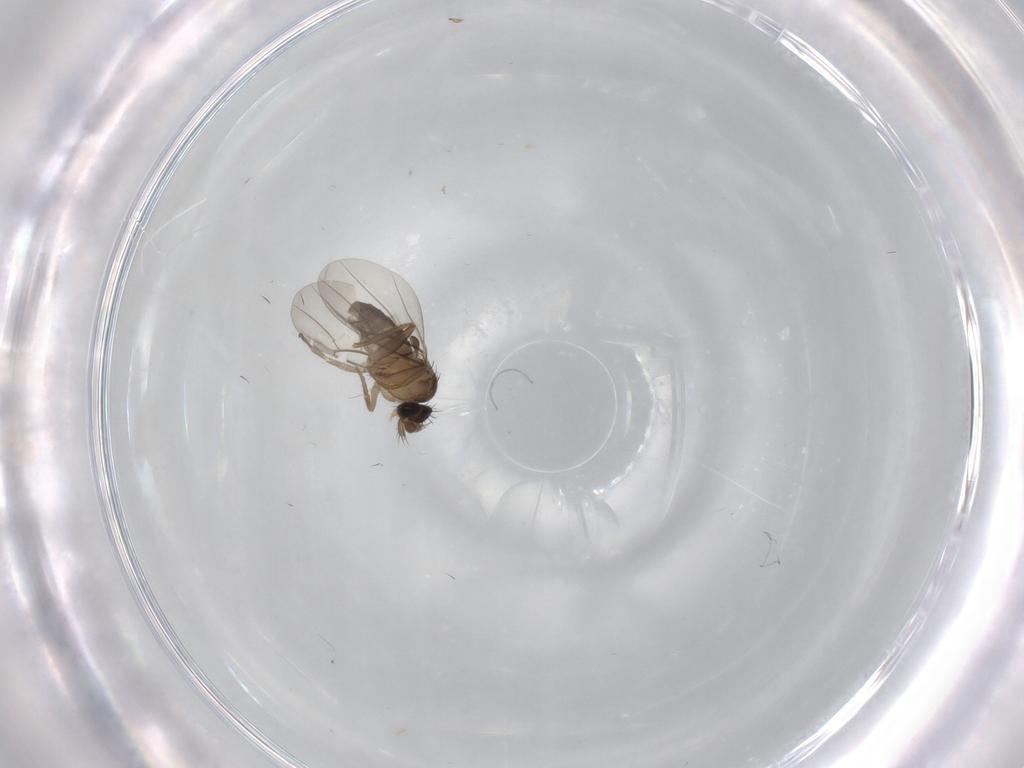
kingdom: Animalia
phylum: Arthropoda
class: Insecta
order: Diptera
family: Phoridae
